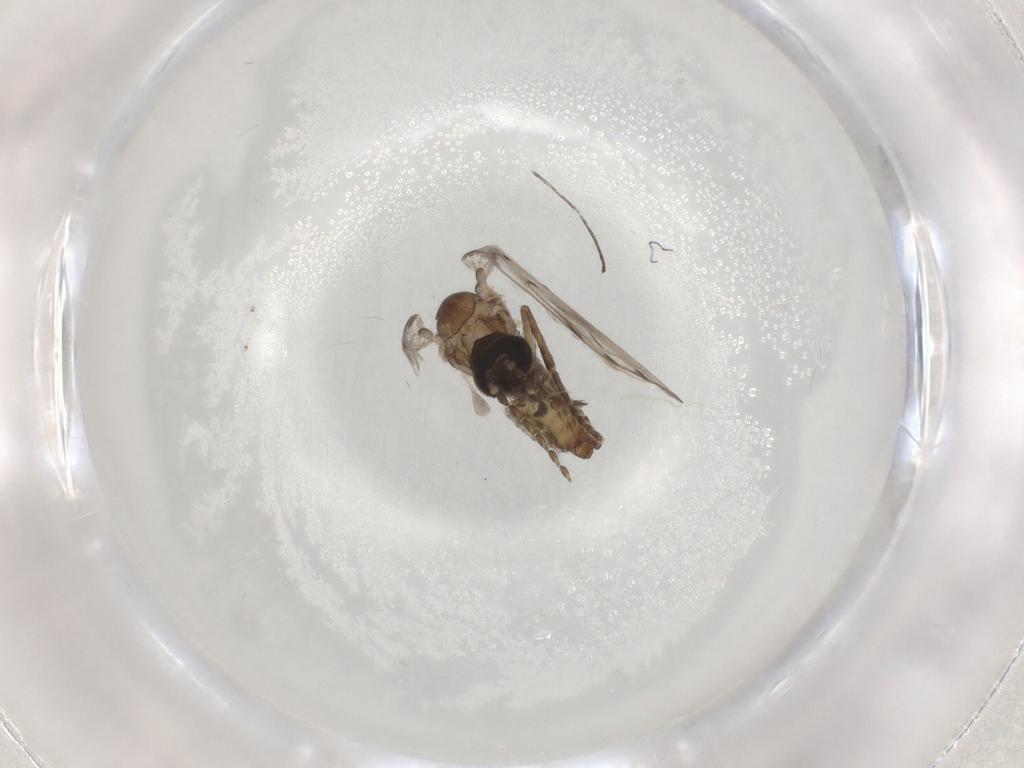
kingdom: Animalia
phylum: Arthropoda
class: Insecta
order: Diptera
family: Psychodidae
